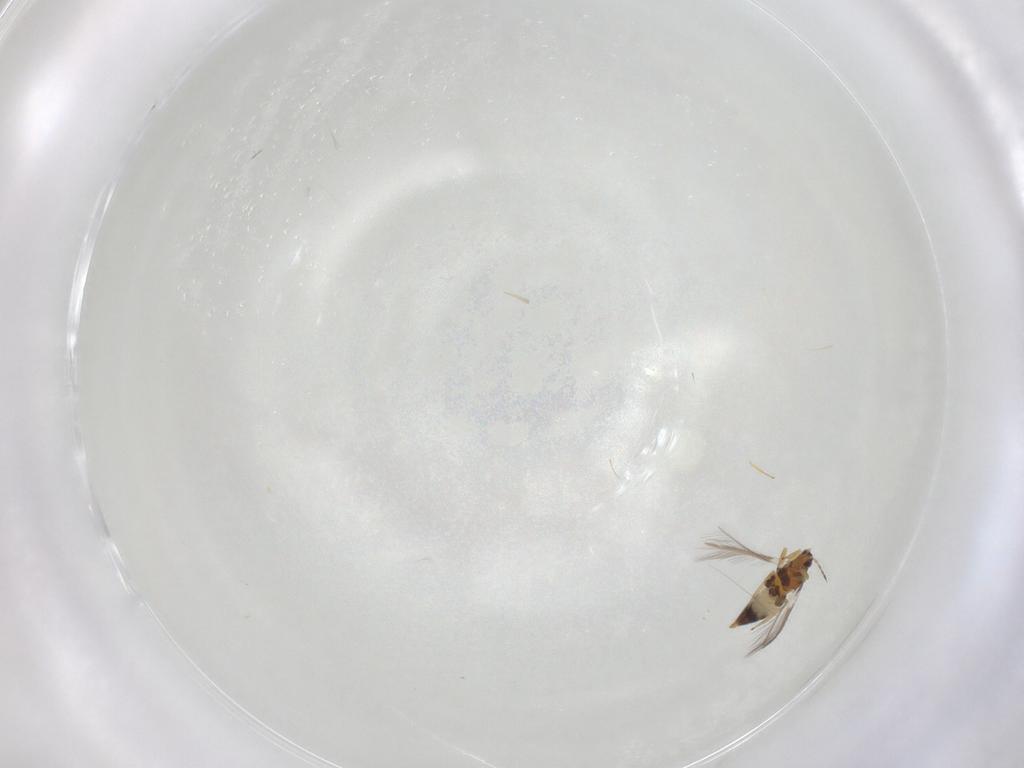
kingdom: Animalia
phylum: Arthropoda
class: Insecta
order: Thysanoptera
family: Thripidae
